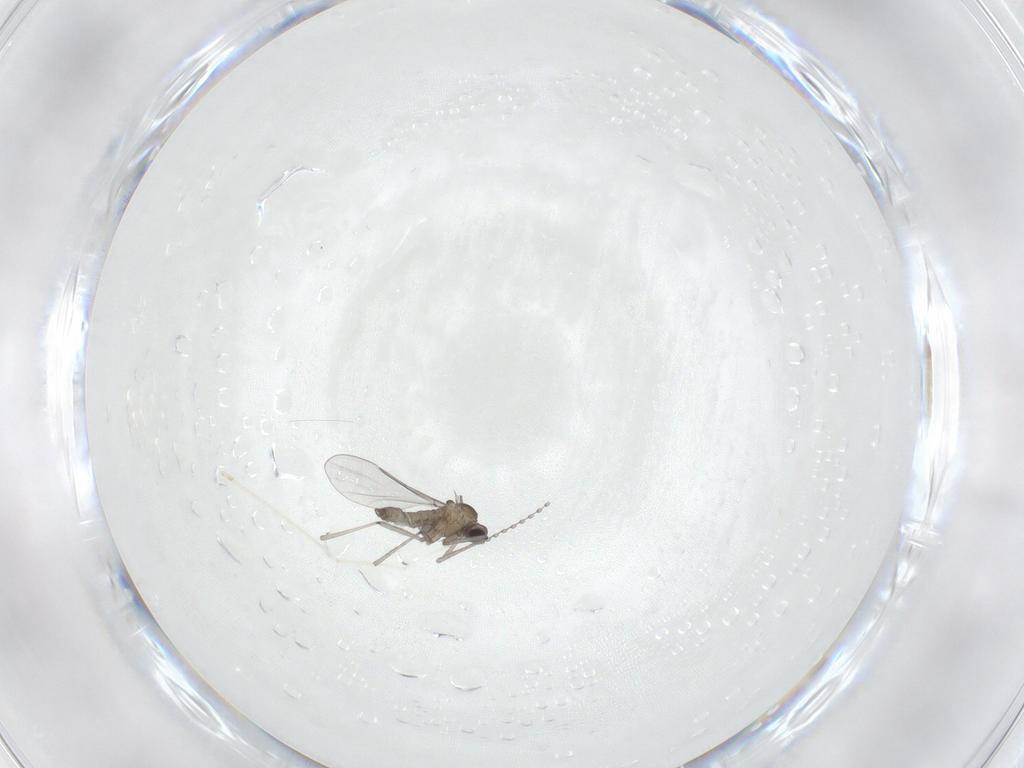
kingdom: Animalia
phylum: Arthropoda
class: Insecta
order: Diptera
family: Cecidomyiidae
